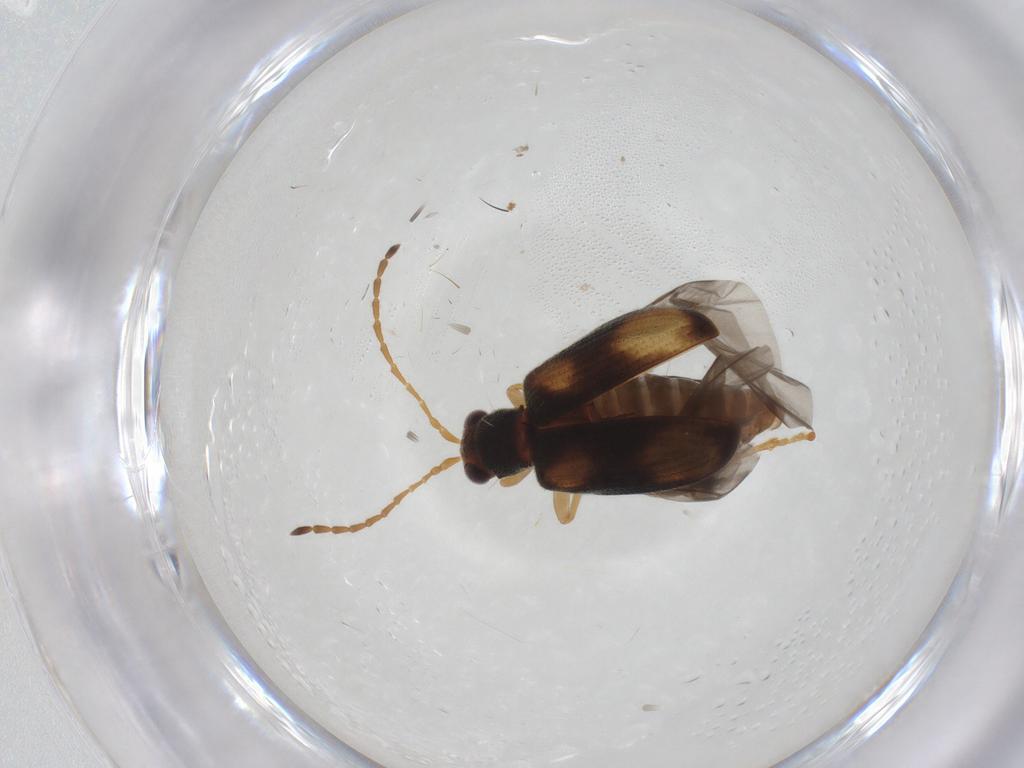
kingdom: Animalia
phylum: Arthropoda
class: Insecta
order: Coleoptera
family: Chrysomelidae
